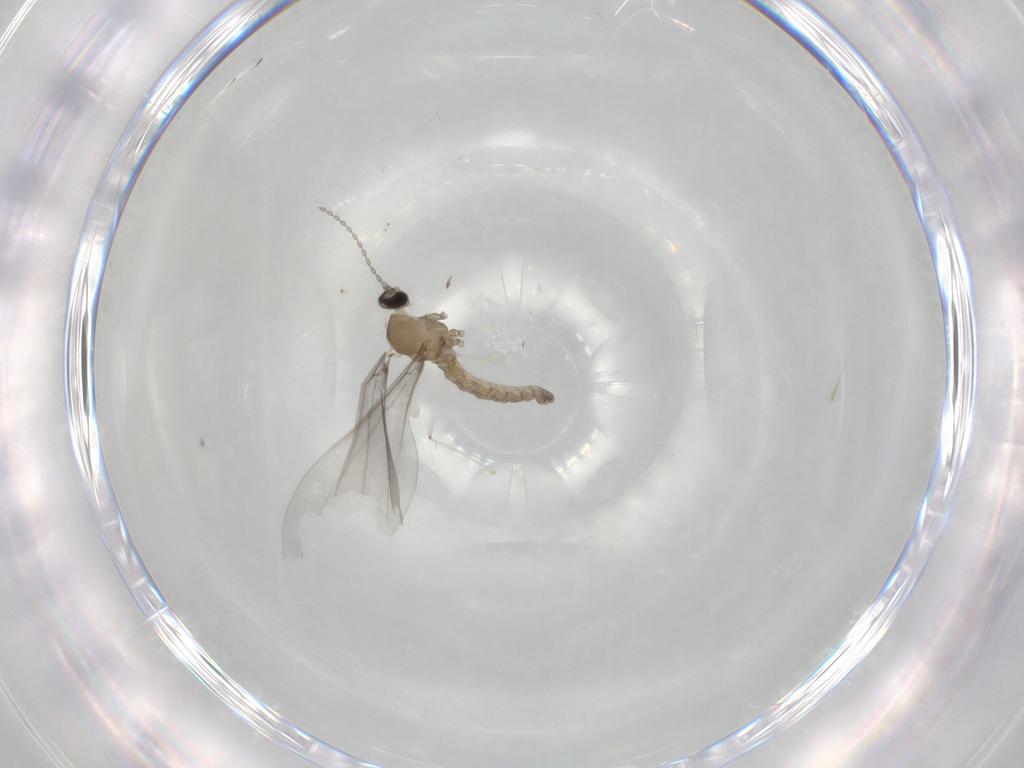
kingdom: Animalia
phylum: Arthropoda
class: Insecta
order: Diptera
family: Cecidomyiidae
